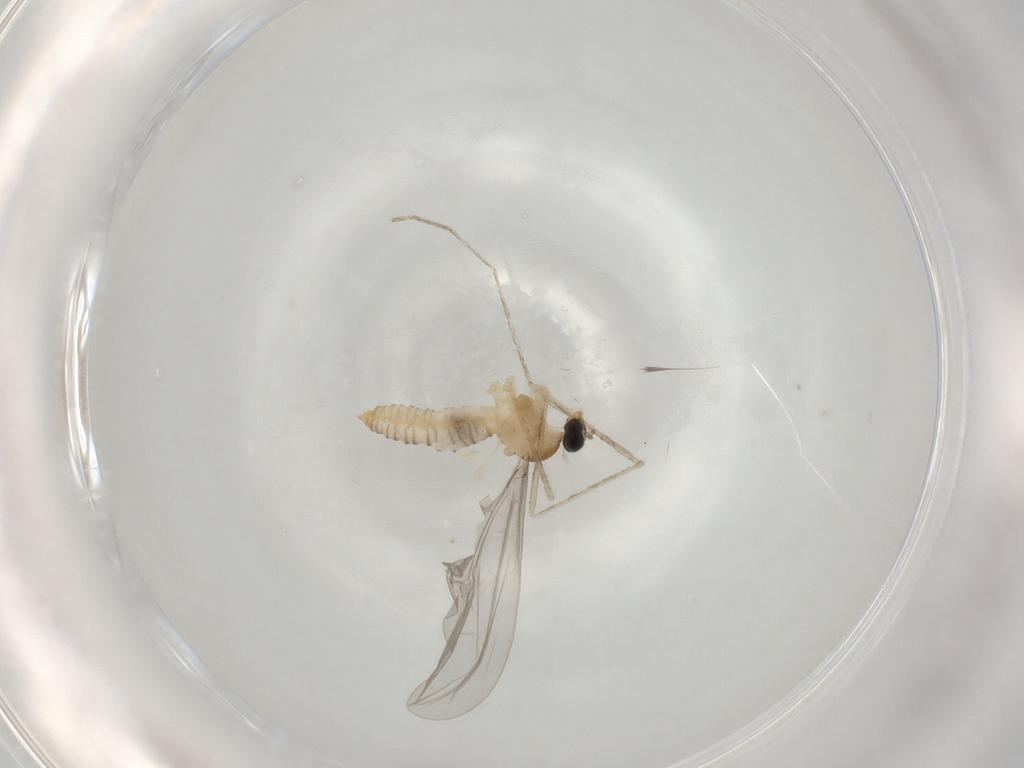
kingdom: Animalia
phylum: Arthropoda
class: Insecta
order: Diptera
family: Cecidomyiidae
